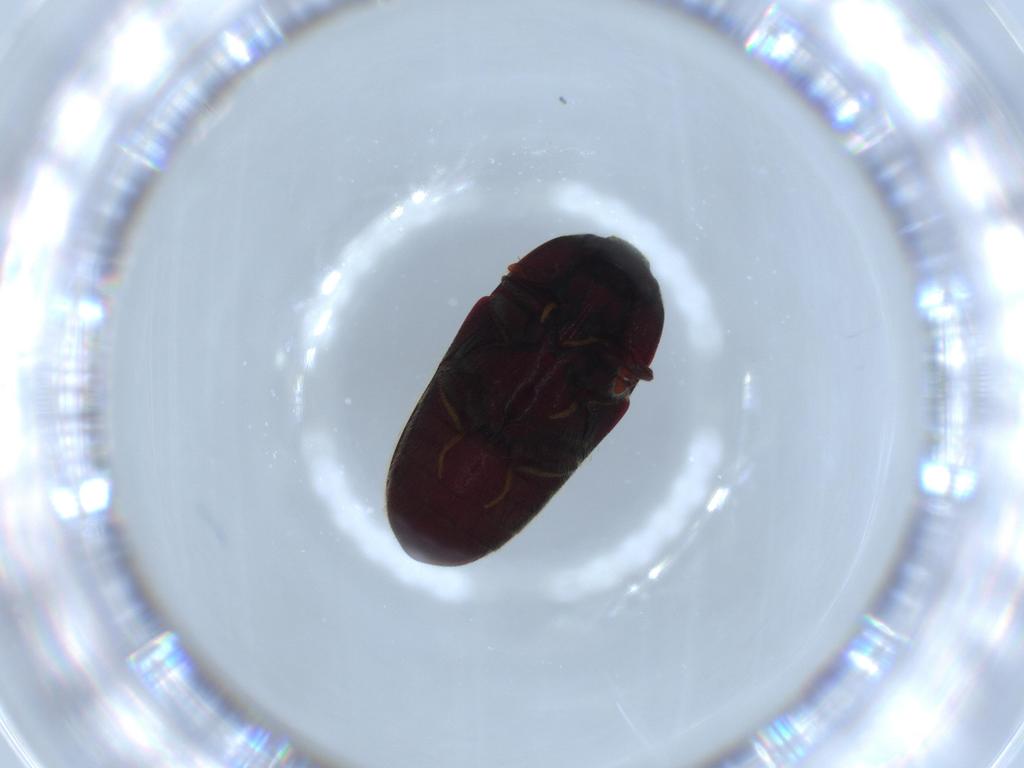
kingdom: Animalia
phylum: Arthropoda
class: Insecta
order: Coleoptera
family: Throscidae
